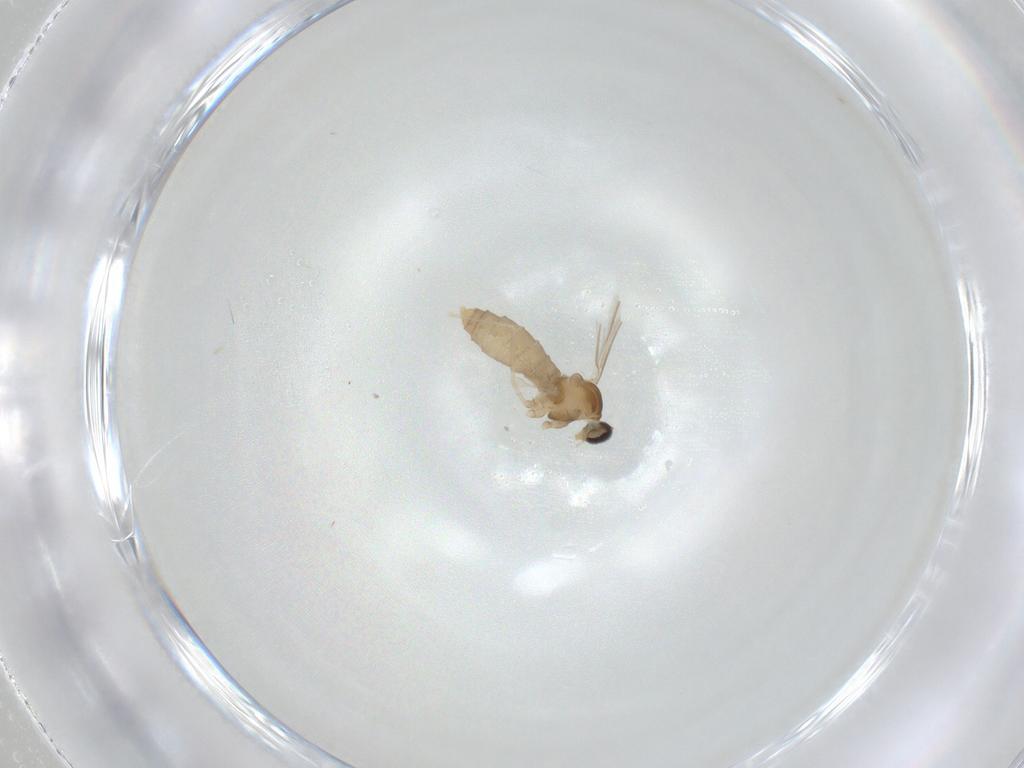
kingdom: Animalia
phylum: Arthropoda
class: Insecta
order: Diptera
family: Cecidomyiidae
